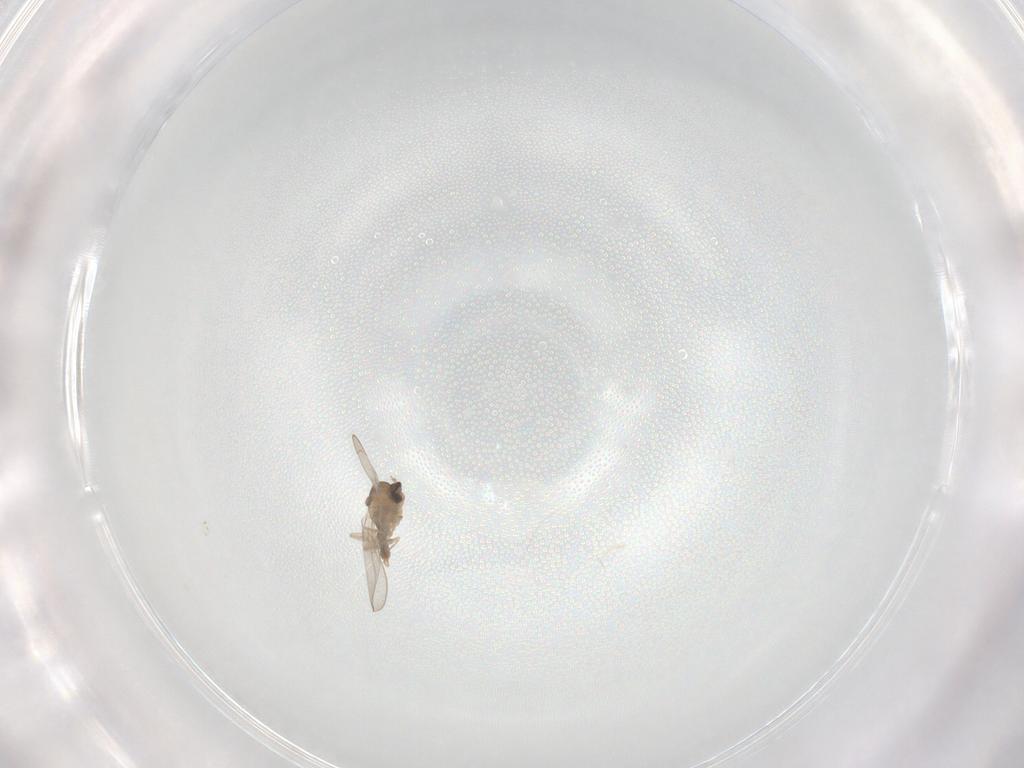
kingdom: Animalia
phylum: Arthropoda
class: Insecta
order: Diptera
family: Cecidomyiidae
